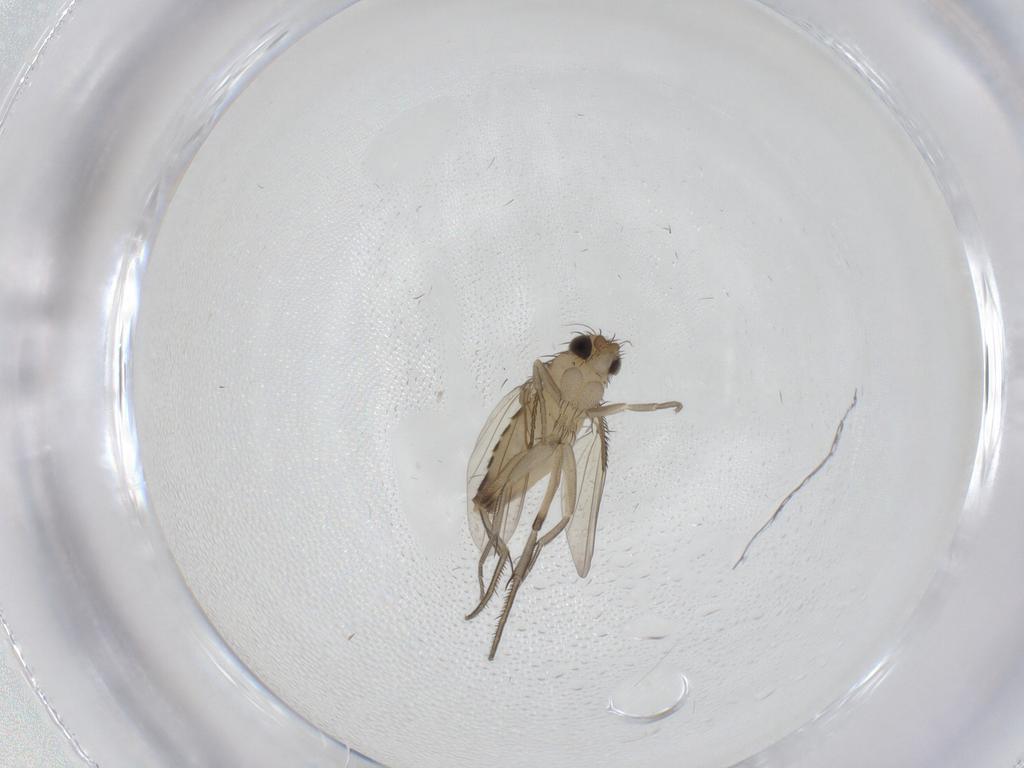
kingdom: Animalia
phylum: Arthropoda
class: Insecta
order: Diptera
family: Phoridae
